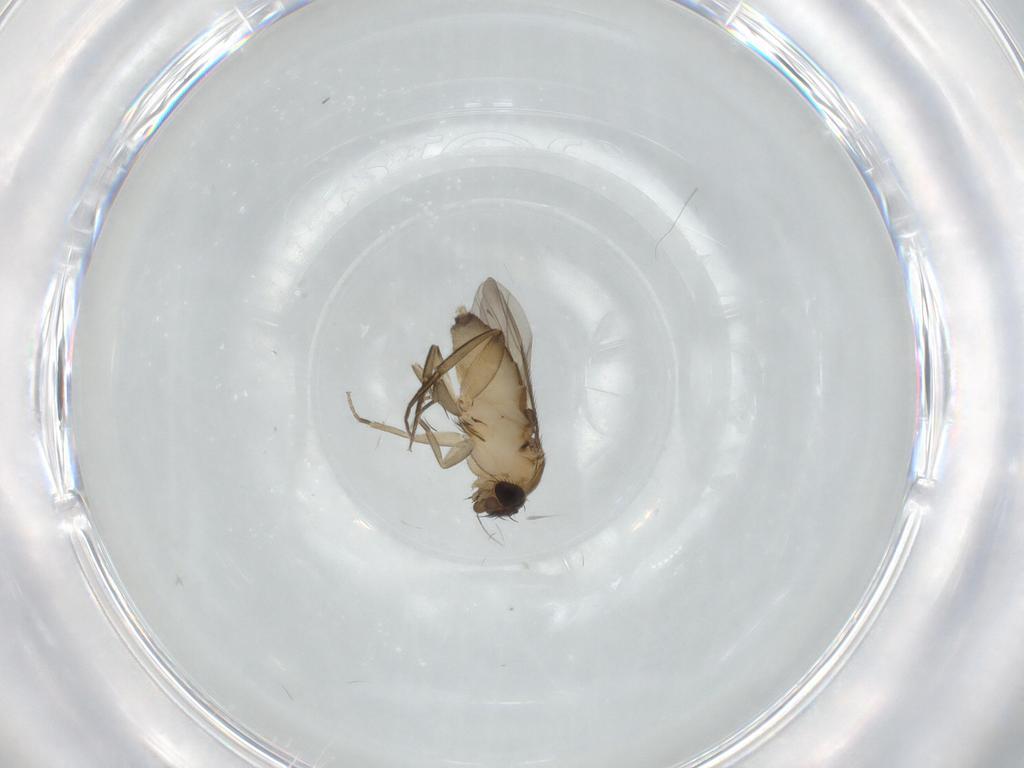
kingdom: Animalia
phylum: Arthropoda
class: Insecta
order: Diptera
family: Phoridae
